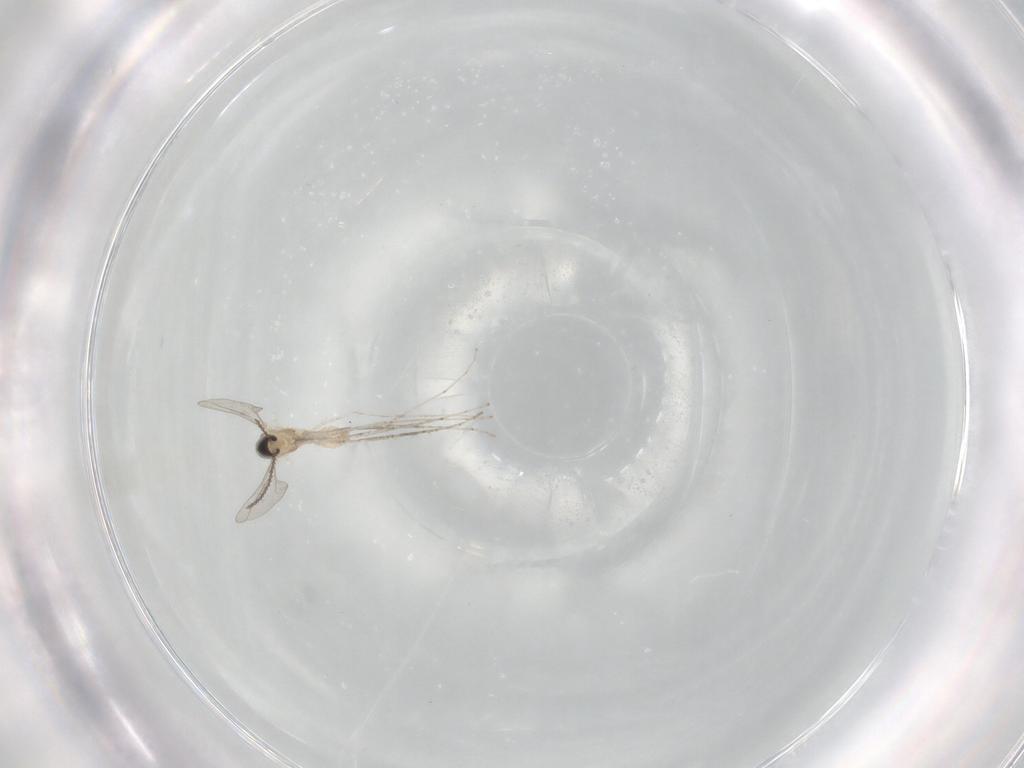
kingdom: Animalia
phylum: Arthropoda
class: Insecta
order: Diptera
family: Cecidomyiidae
